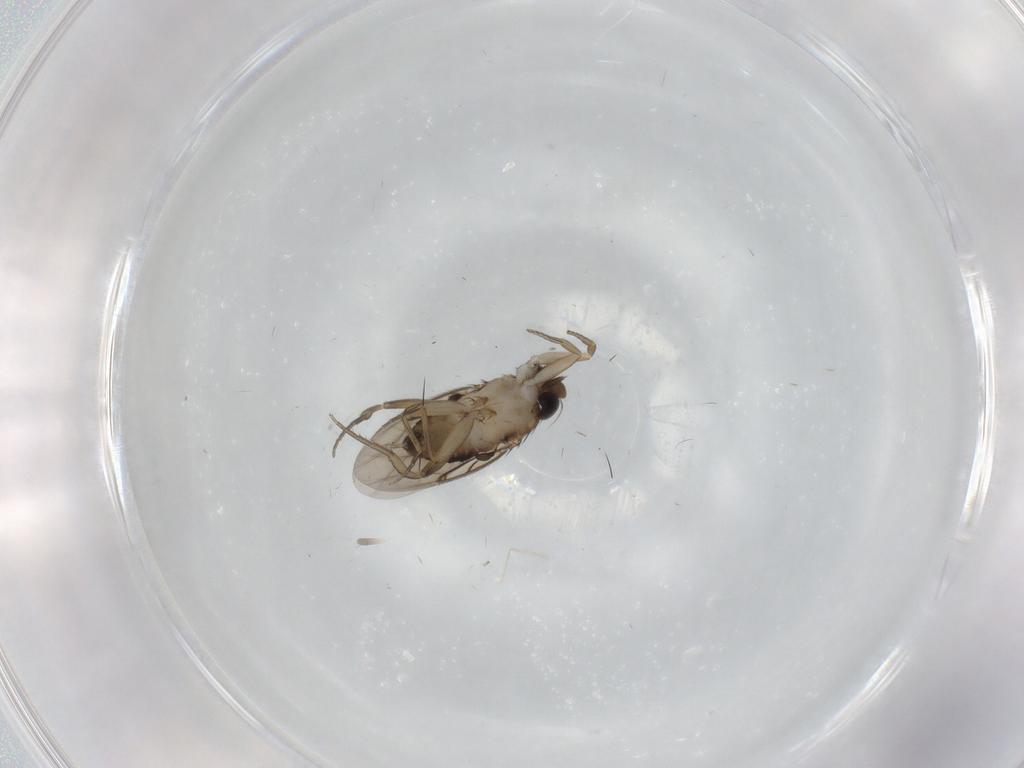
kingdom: Animalia
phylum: Arthropoda
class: Insecta
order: Diptera
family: Phoridae
